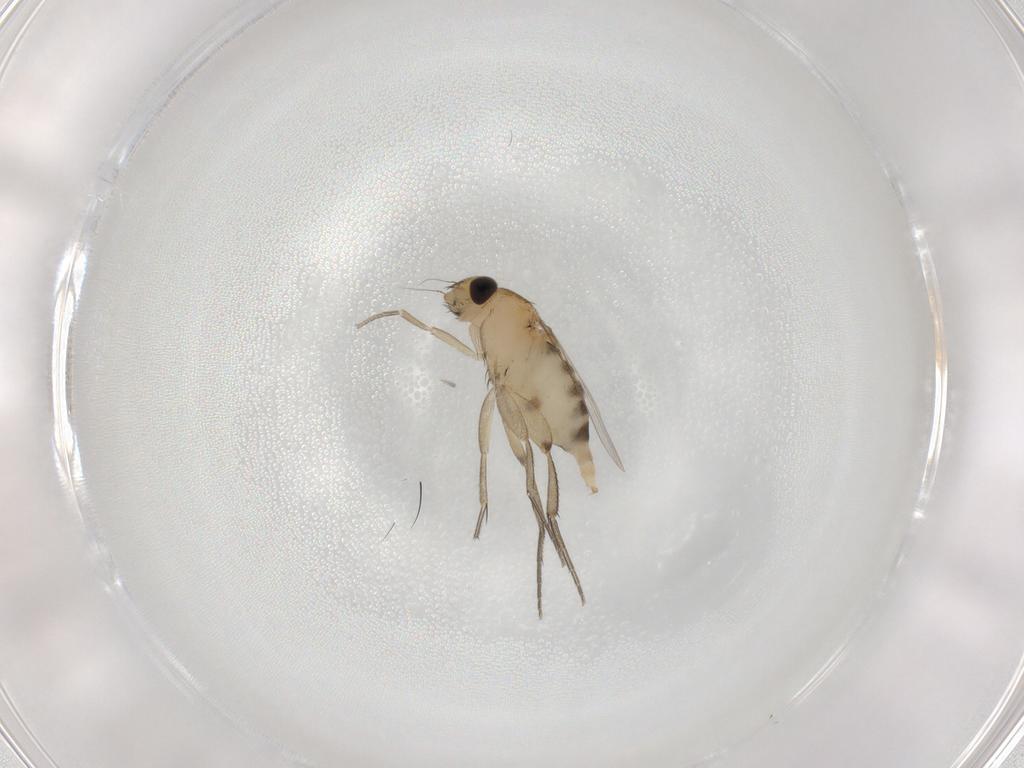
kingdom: Animalia
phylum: Arthropoda
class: Insecta
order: Diptera
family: Phoridae
